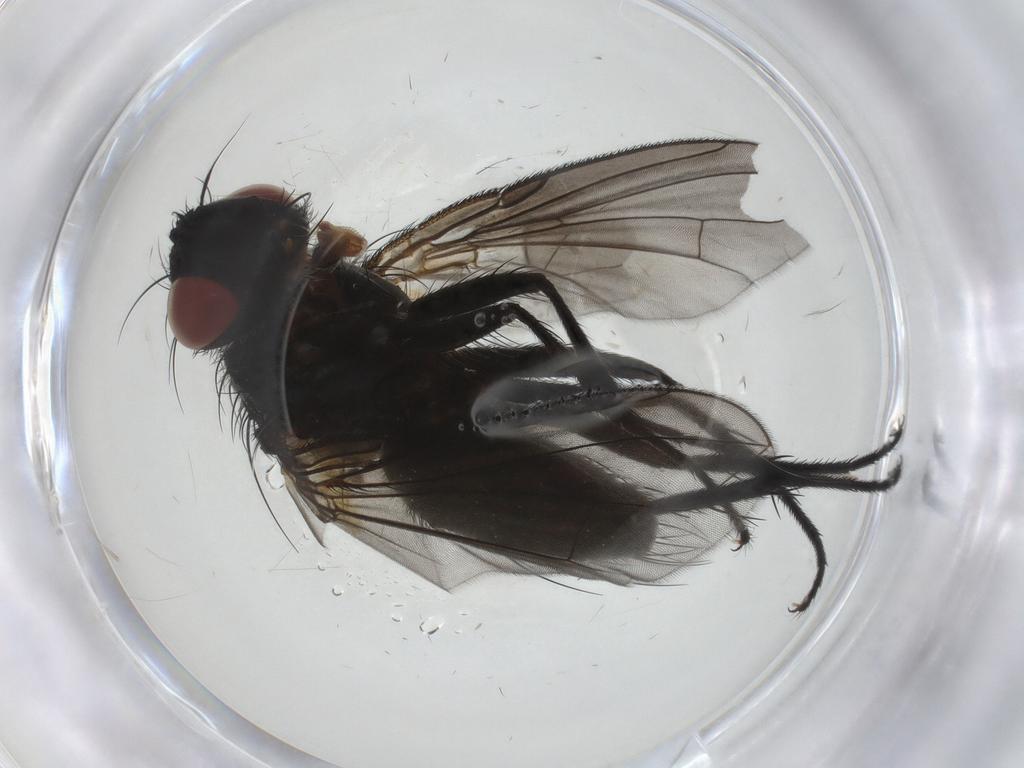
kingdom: Animalia
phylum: Arthropoda
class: Insecta
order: Diptera
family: Tachinidae
